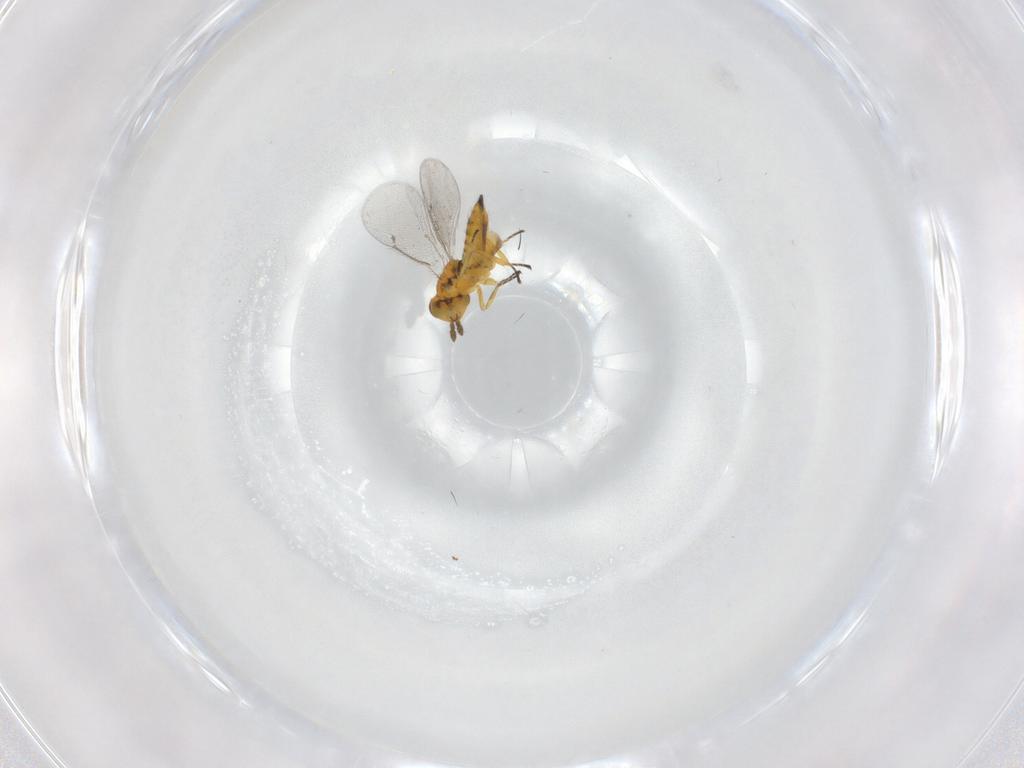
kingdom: Animalia
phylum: Arthropoda
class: Insecta
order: Hymenoptera
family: Eulophidae
